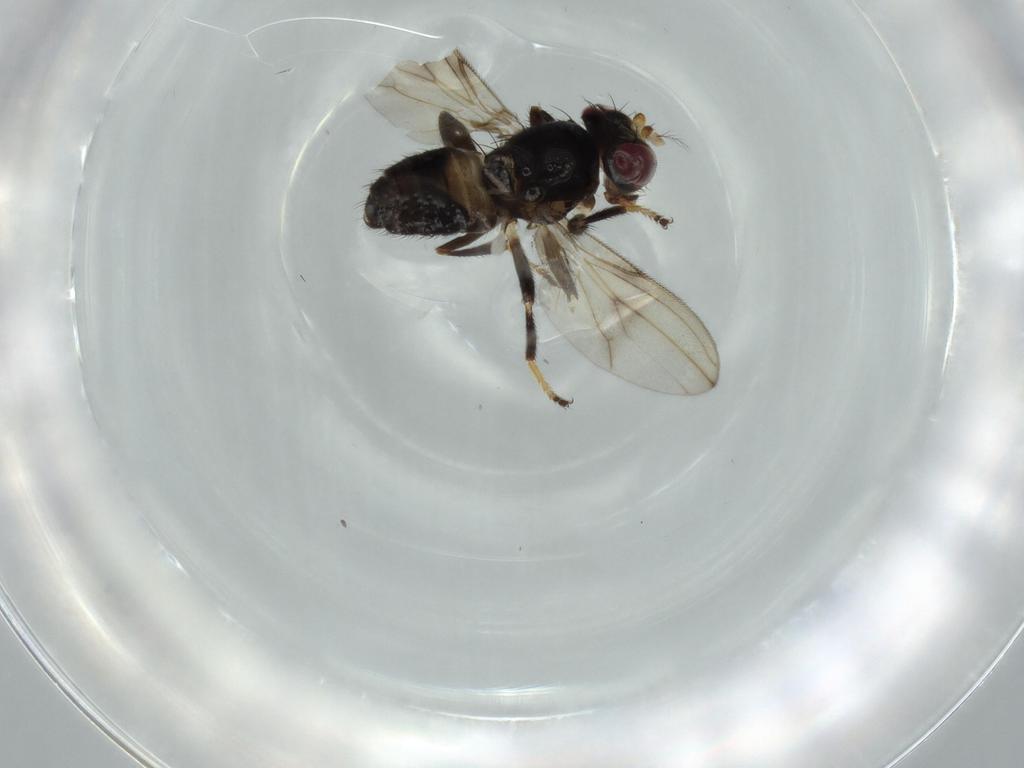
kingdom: Animalia
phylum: Arthropoda
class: Insecta
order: Diptera
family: Periscelididae
